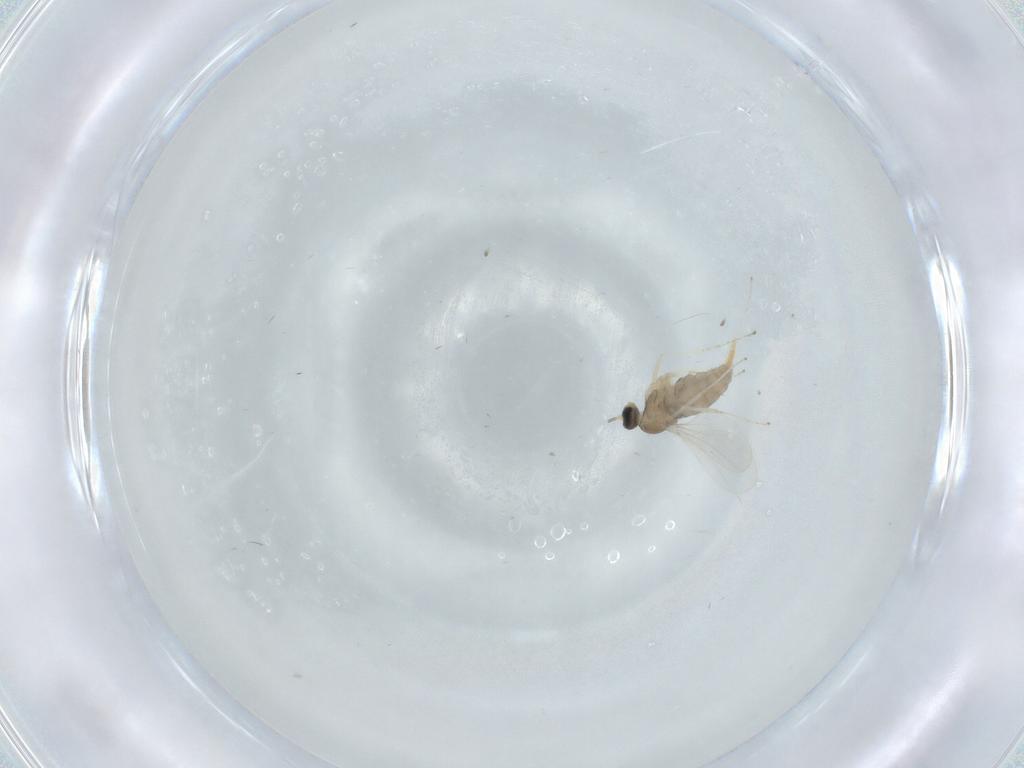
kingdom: Animalia
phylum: Arthropoda
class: Insecta
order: Diptera
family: Cecidomyiidae
